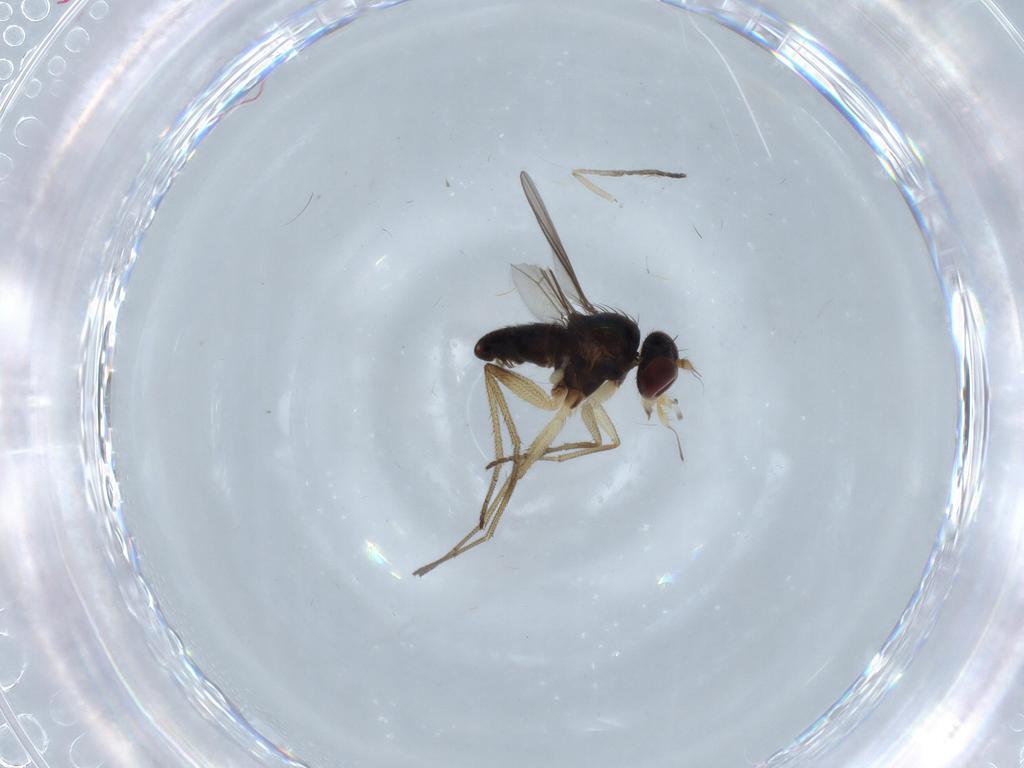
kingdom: Animalia
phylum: Arthropoda
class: Insecta
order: Diptera
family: Dolichopodidae
